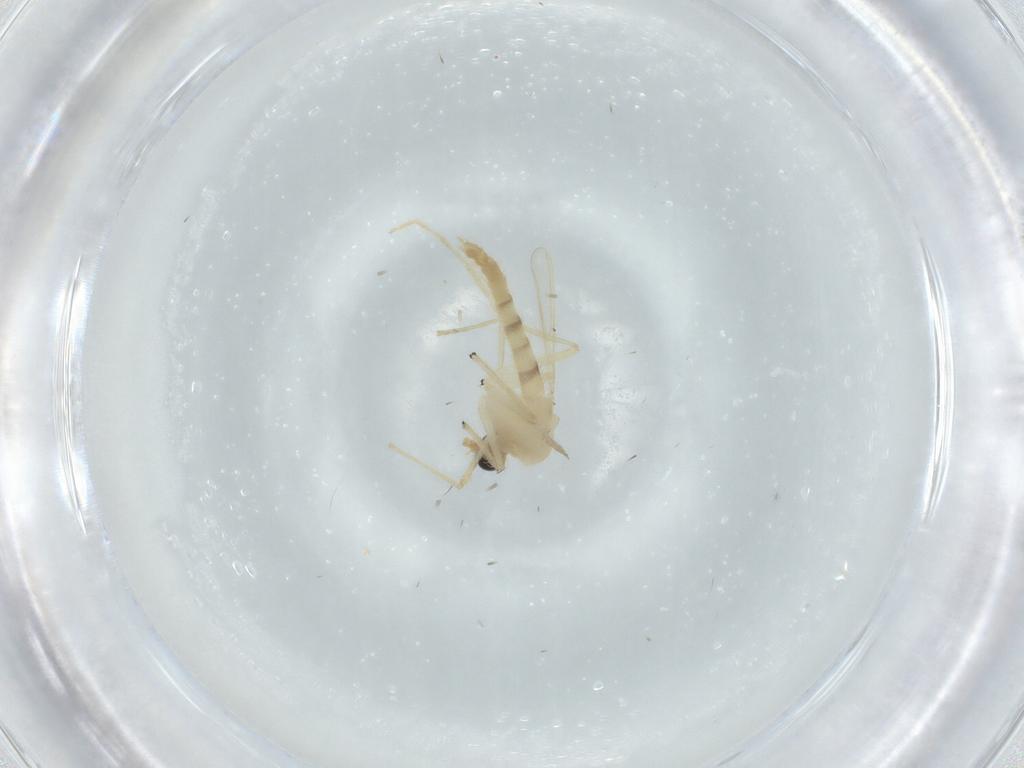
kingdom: Animalia
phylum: Arthropoda
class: Insecta
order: Diptera
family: Chironomidae
